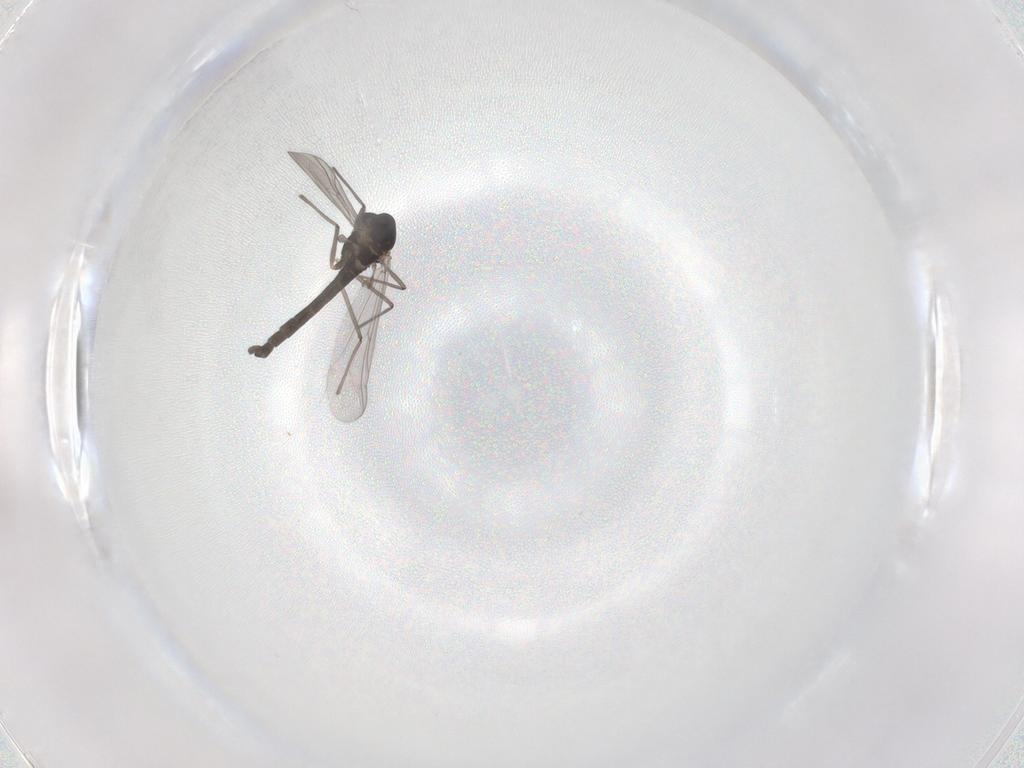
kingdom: Animalia
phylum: Arthropoda
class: Insecta
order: Diptera
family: Chironomidae
